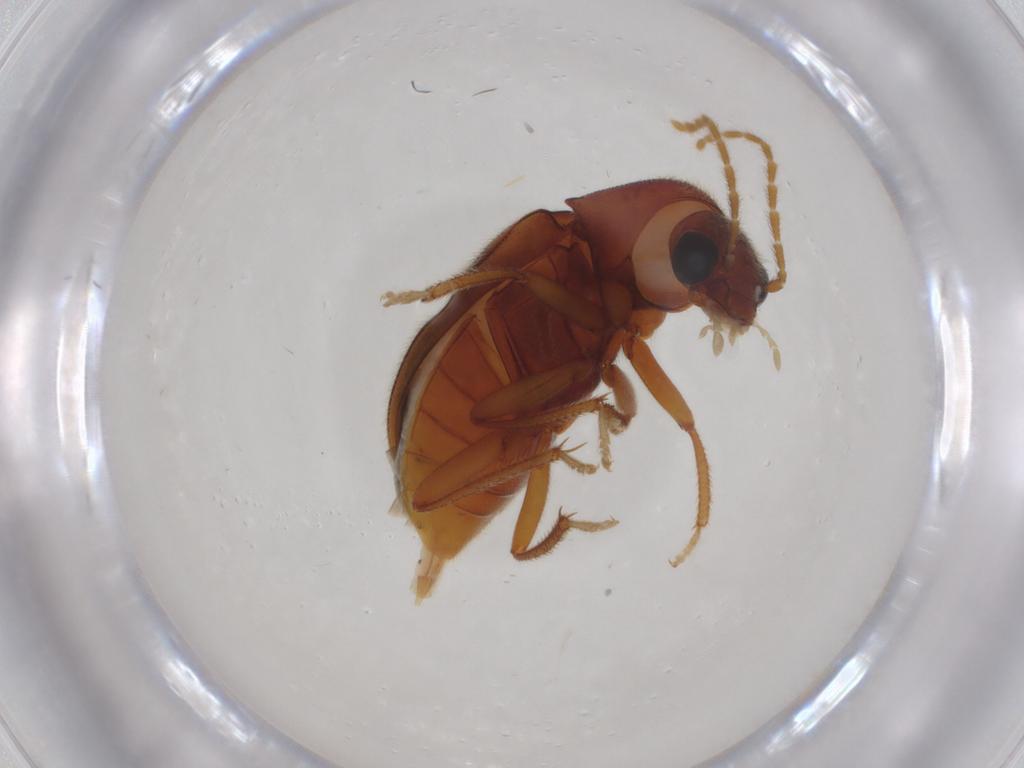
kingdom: Animalia
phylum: Arthropoda
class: Insecta
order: Coleoptera
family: Ptilodactylidae
